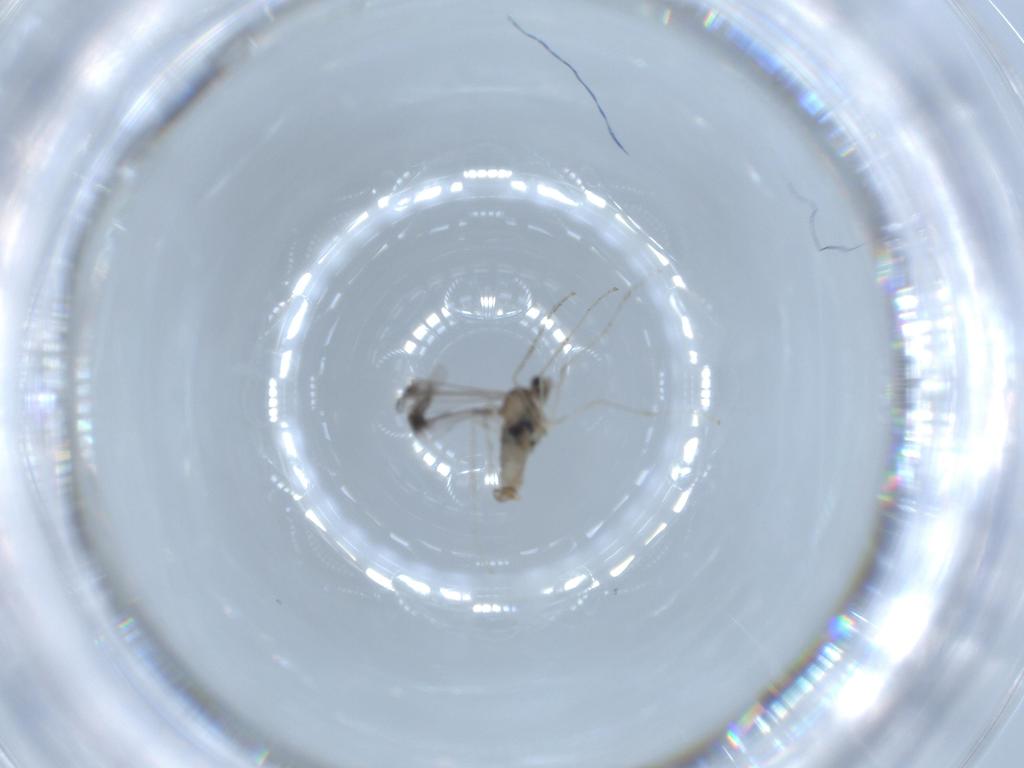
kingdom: Animalia
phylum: Arthropoda
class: Insecta
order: Diptera
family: Cecidomyiidae
